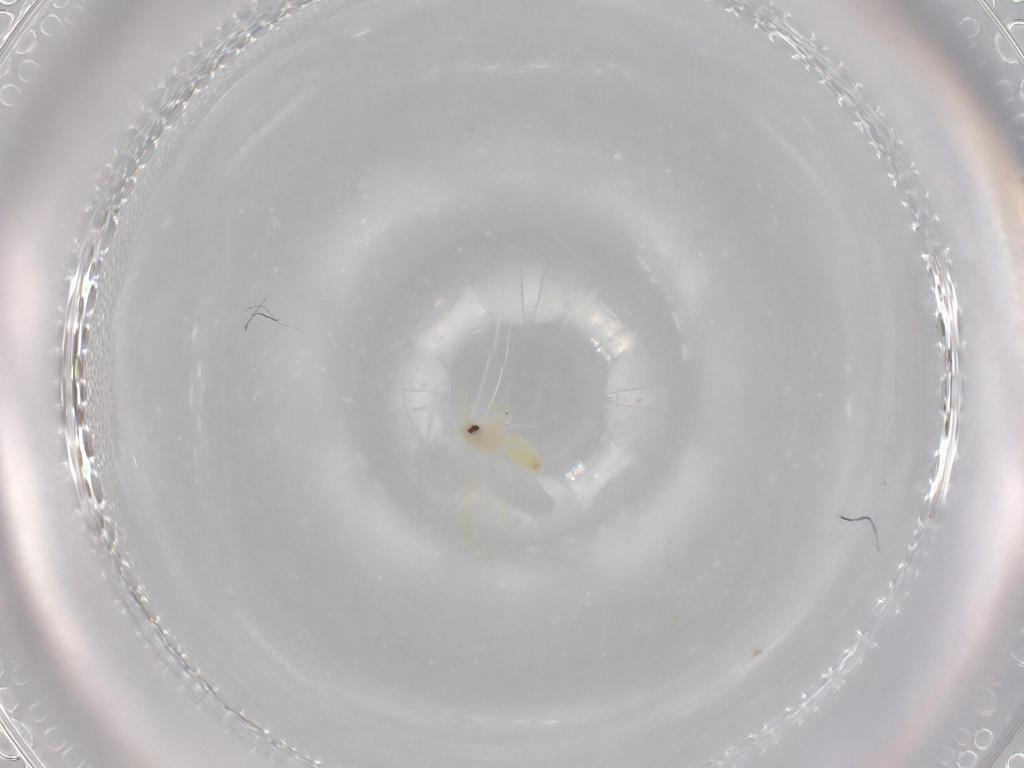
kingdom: Animalia
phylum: Arthropoda
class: Insecta
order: Hemiptera
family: Aleyrodidae
